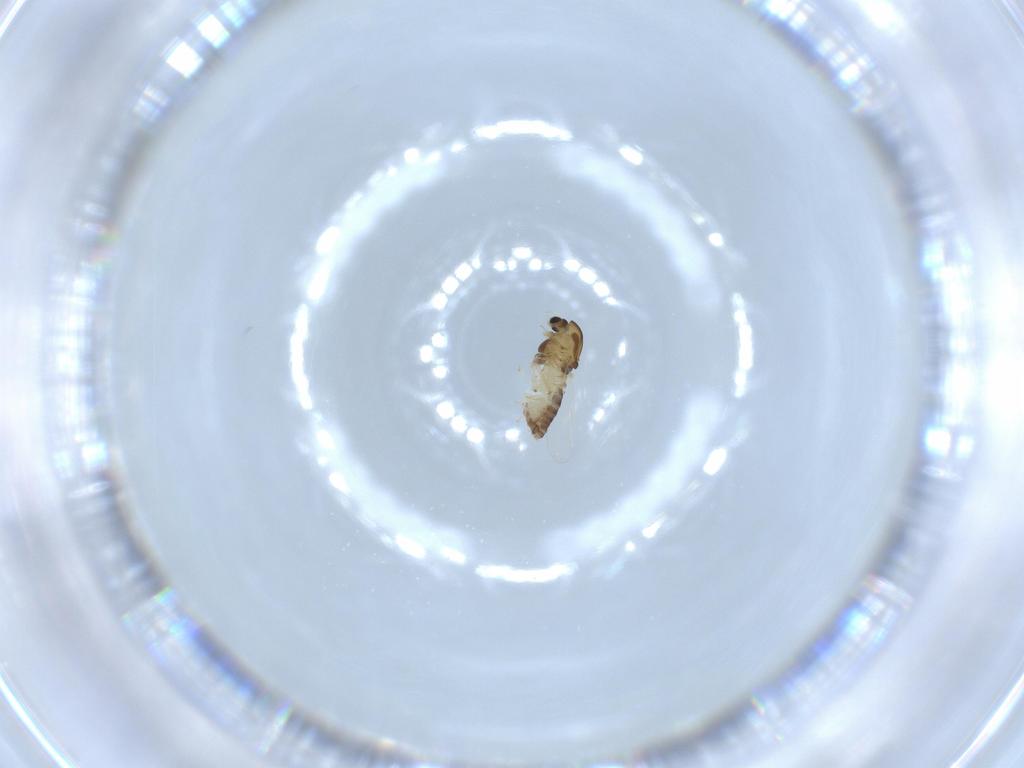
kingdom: Animalia
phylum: Arthropoda
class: Insecta
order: Diptera
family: Chironomidae
